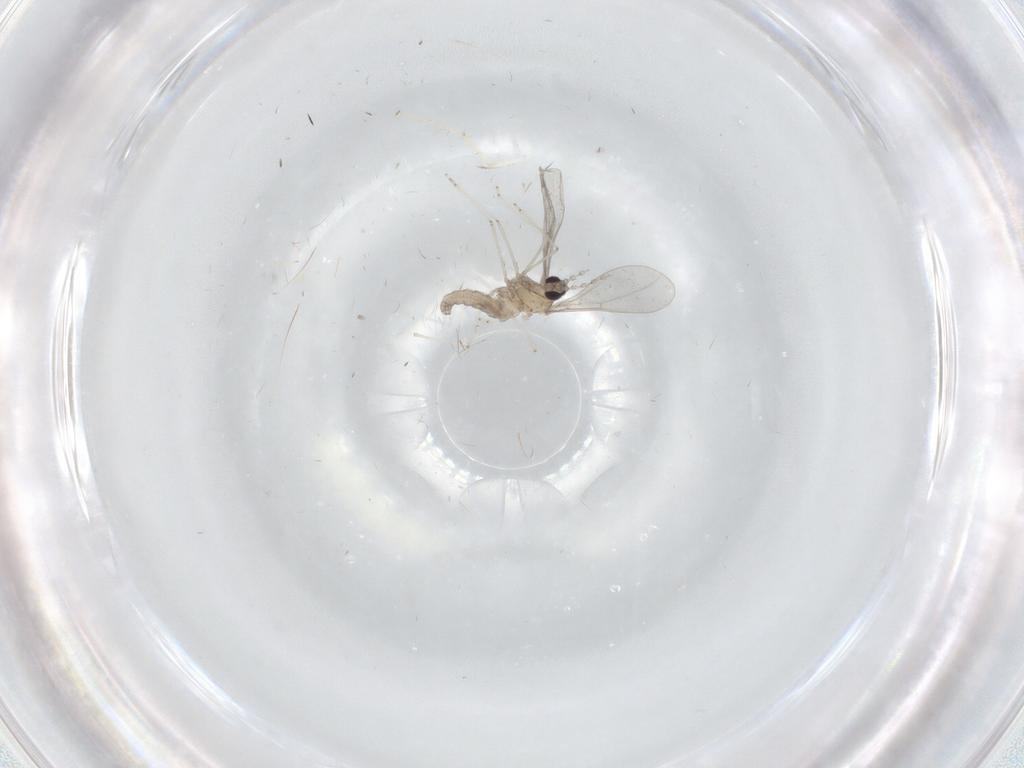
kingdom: Animalia
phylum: Arthropoda
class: Insecta
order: Diptera
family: Cecidomyiidae
